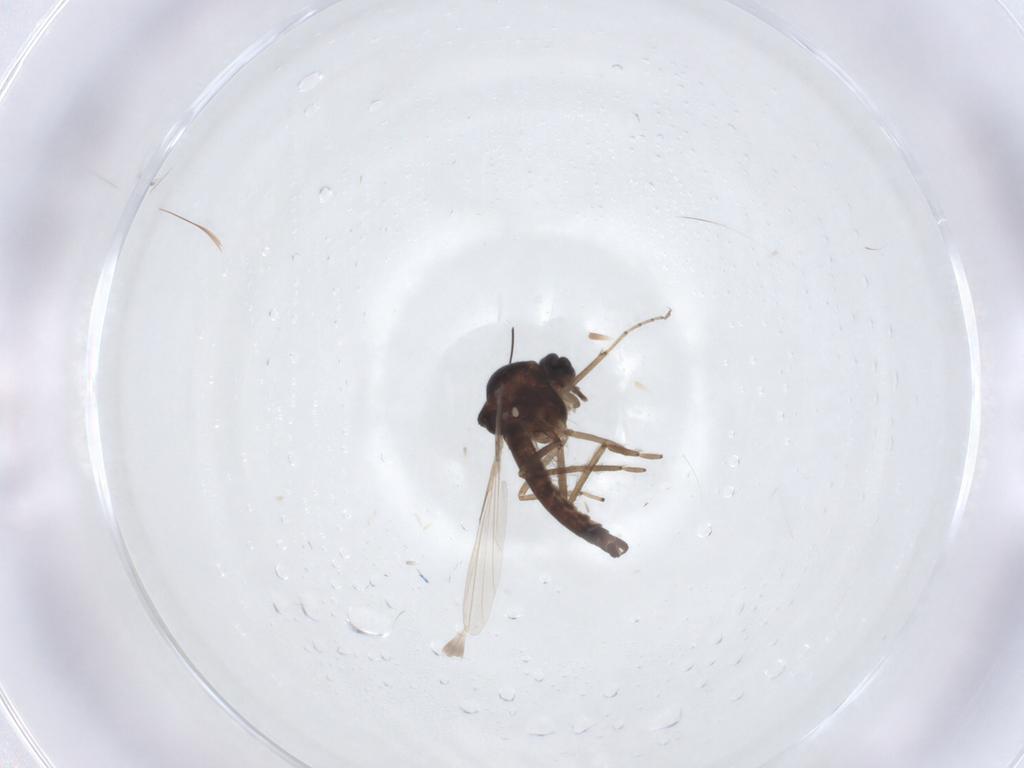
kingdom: Animalia
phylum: Arthropoda
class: Insecta
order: Diptera
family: Ceratopogonidae
